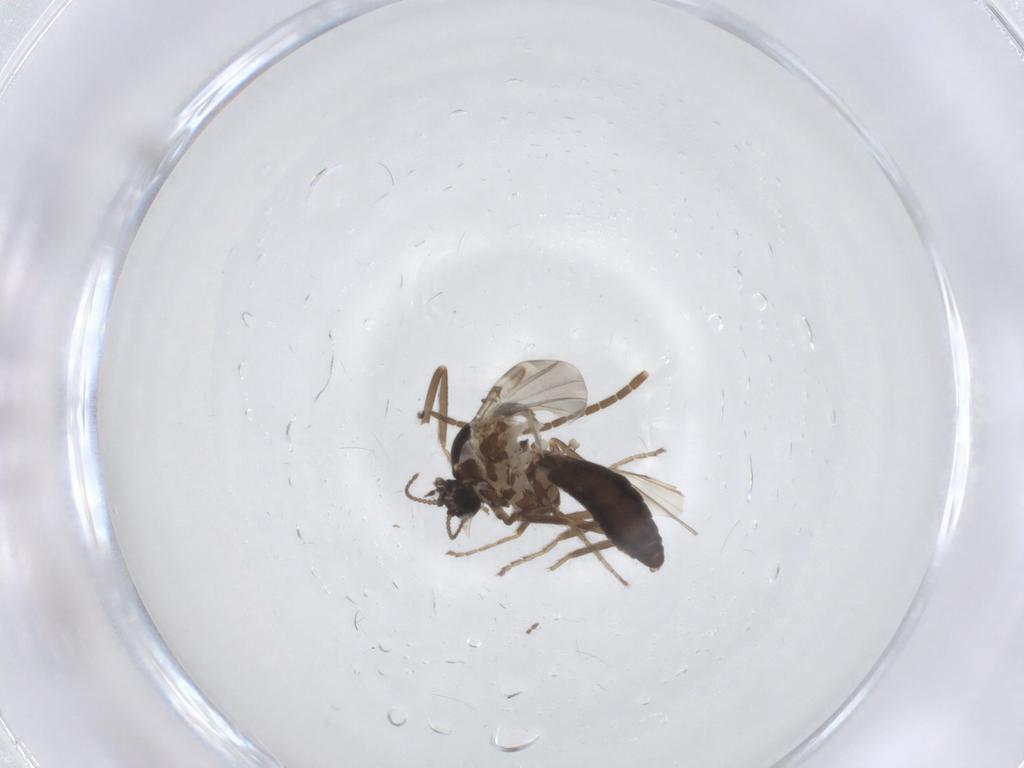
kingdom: Animalia
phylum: Arthropoda
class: Insecta
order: Diptera
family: Ceratopogonidae
